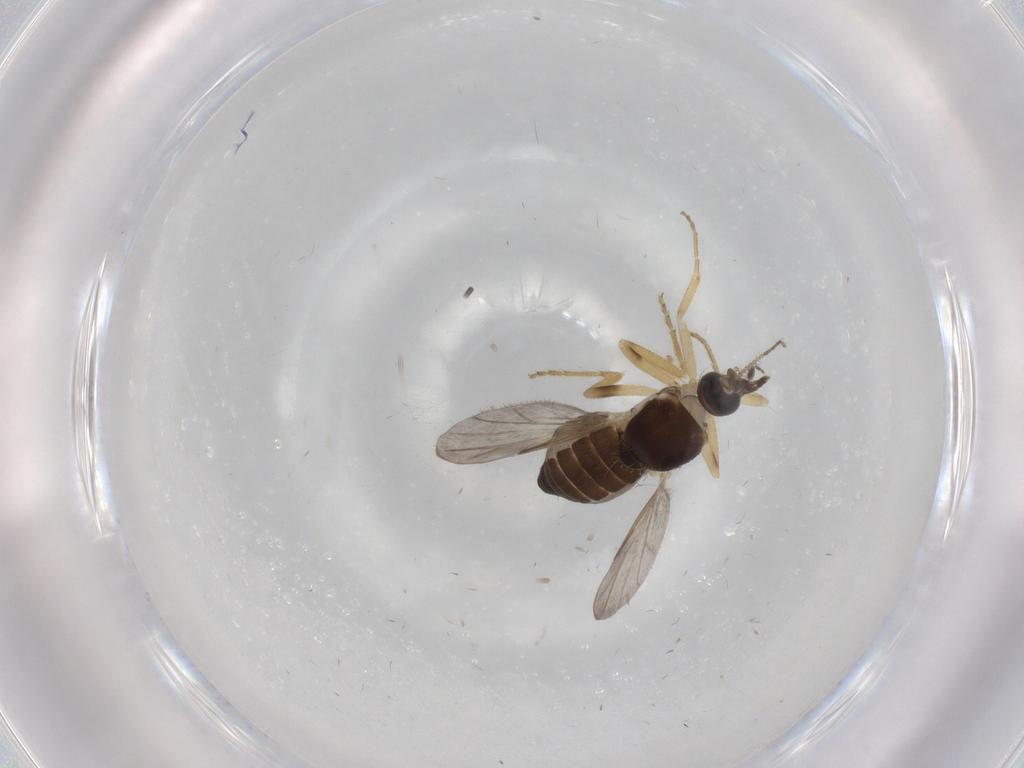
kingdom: Animalia
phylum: Arthropoda
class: Insecta
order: Diptera
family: Ceratopogonidae
